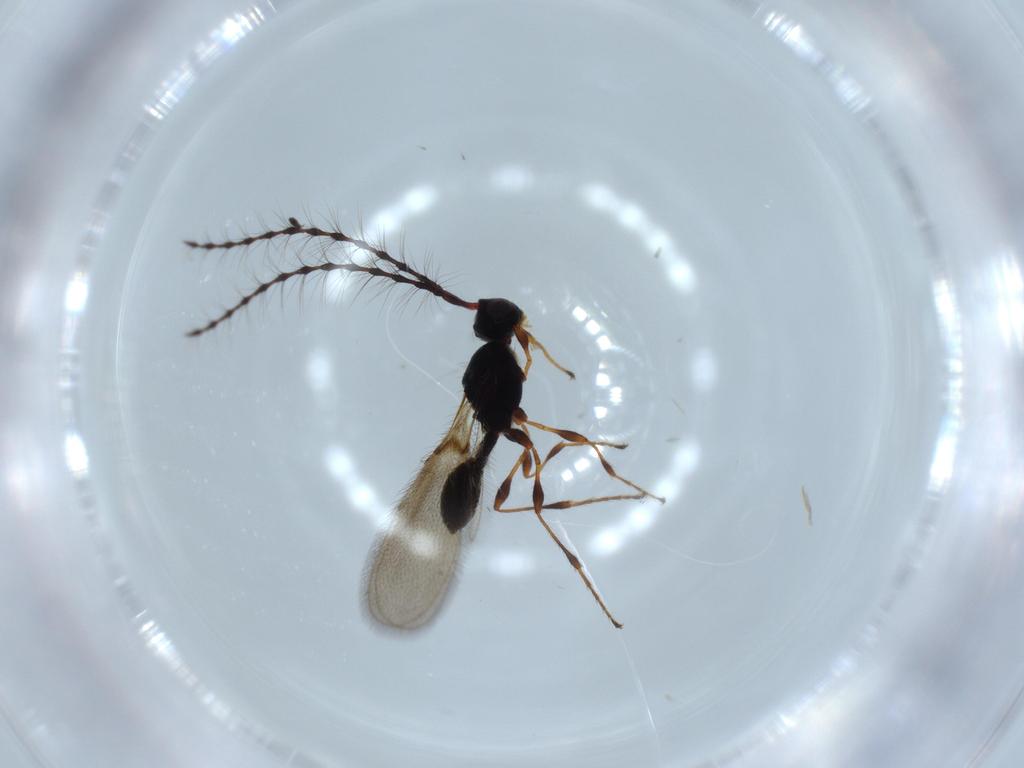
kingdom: Animalia
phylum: Arthropoda
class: Insecta
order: Hymenoptera
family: Diapriidae
